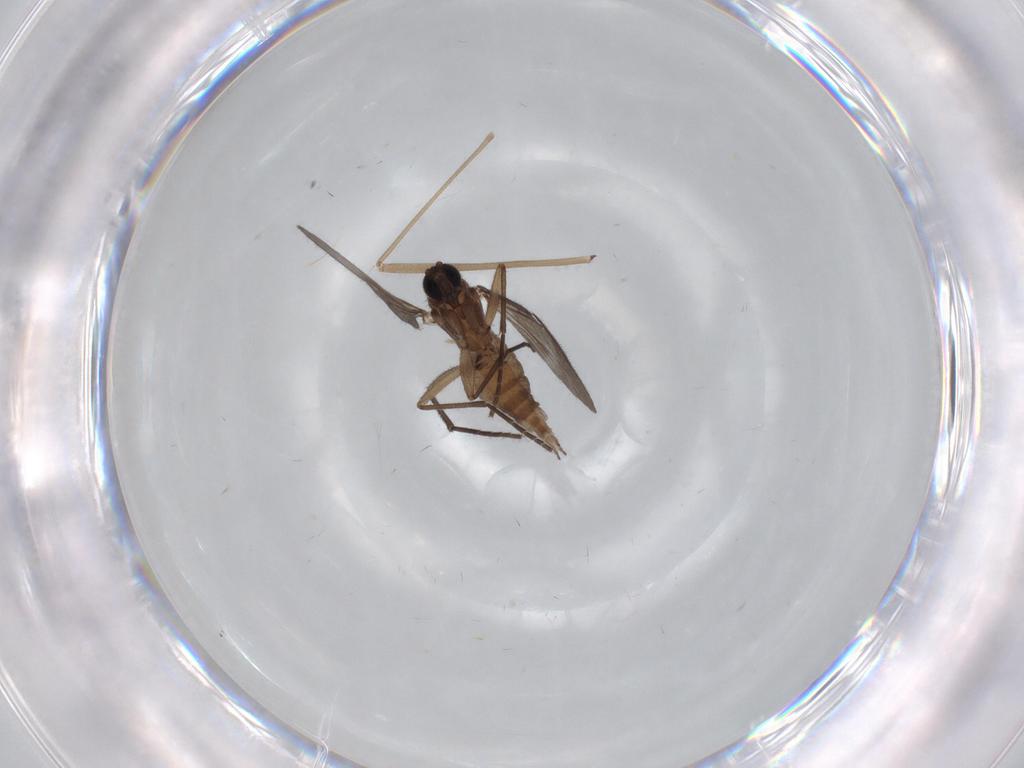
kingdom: Animalia
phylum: Arthropoda
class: Insecta
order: Diptera
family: Sciaridae
